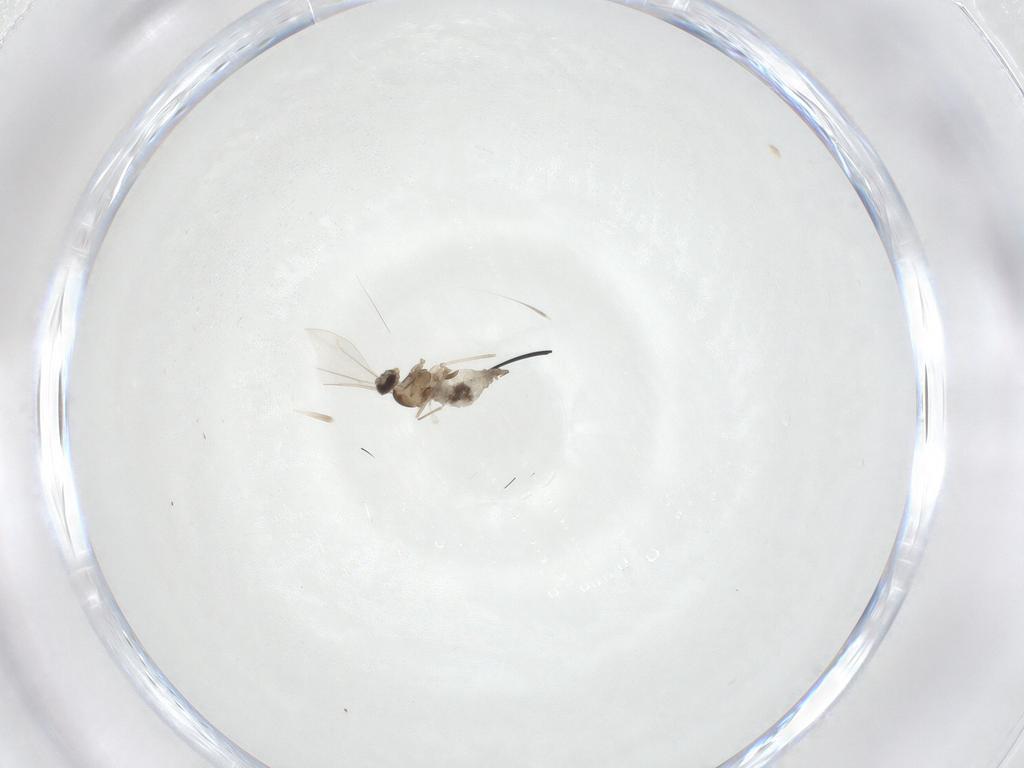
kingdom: Animalia
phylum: Arthropoda
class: Insecta
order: Diptera
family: Cecidomyiidae
